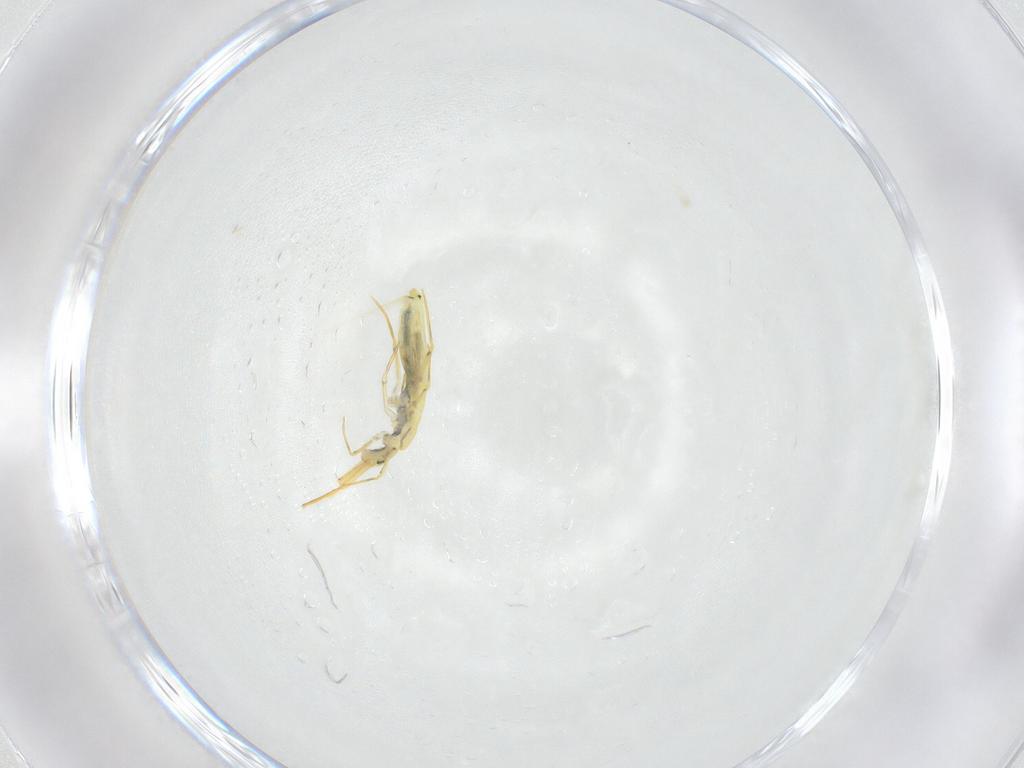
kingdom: Animalia
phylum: Arthropoda
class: Collembola
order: Entomobryomorpha
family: Entomobryidae
